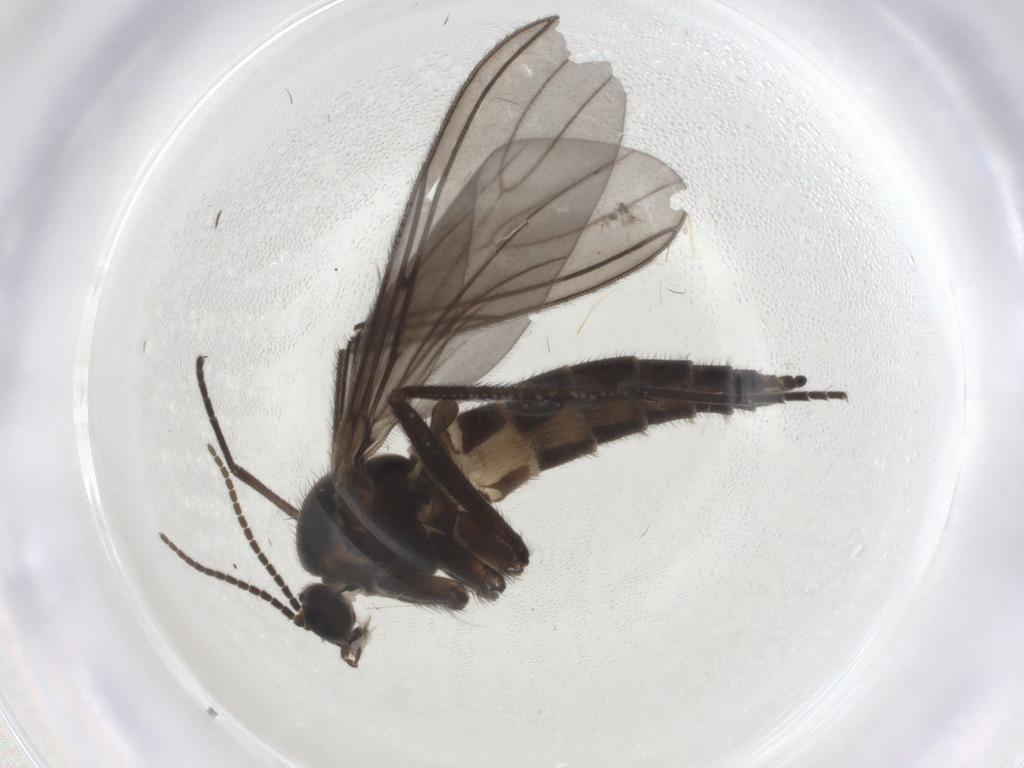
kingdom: Animalia
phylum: Arthropoda
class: Insecta
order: Diptera
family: Sciaridae
